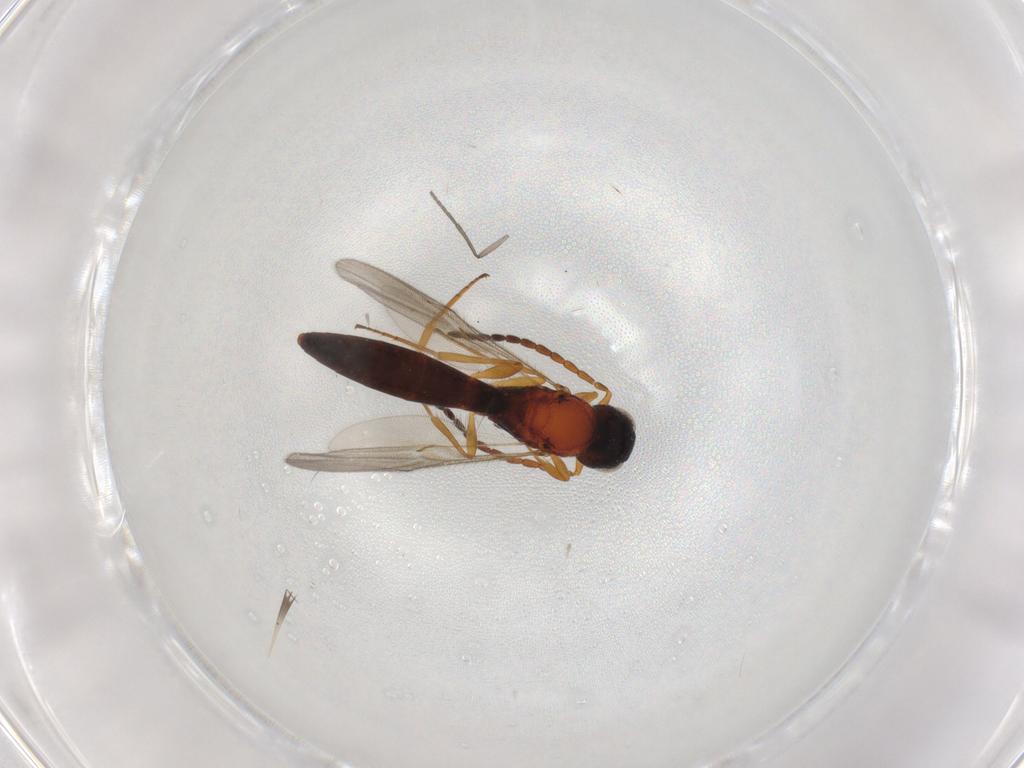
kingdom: Animalia
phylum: Arthropoda
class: Insecta
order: Hymenoptera
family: Scelionidae
